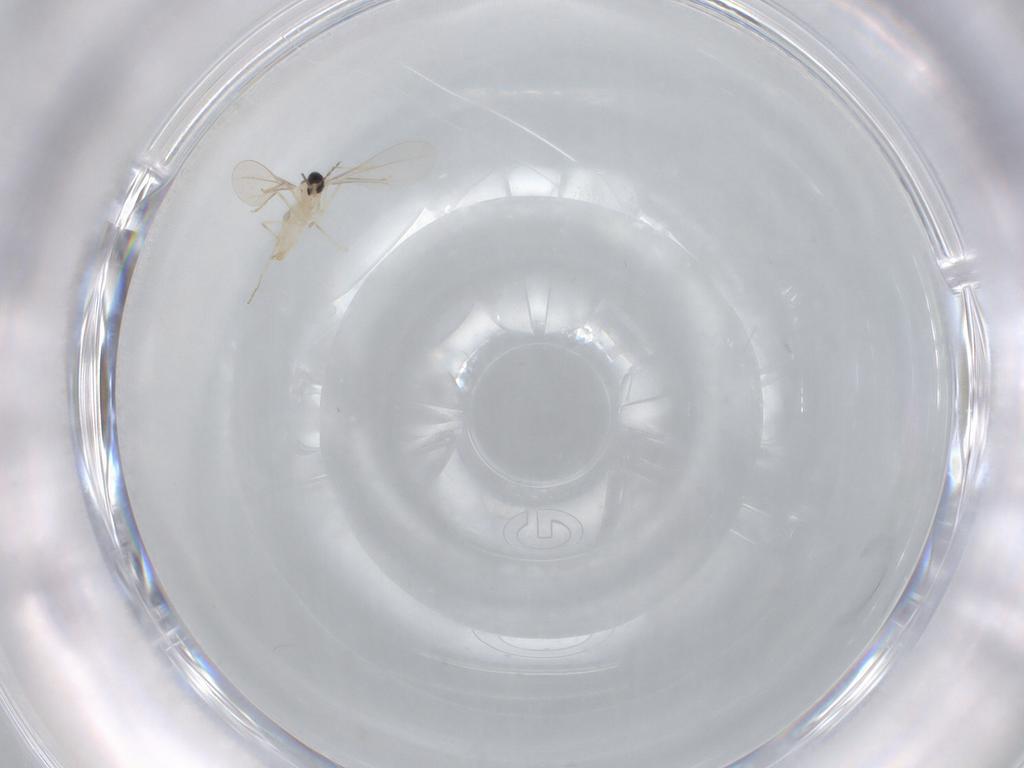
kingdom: Animalia
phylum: Arthropoda
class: Insecta
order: Diptera
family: Cecidomyiidae
